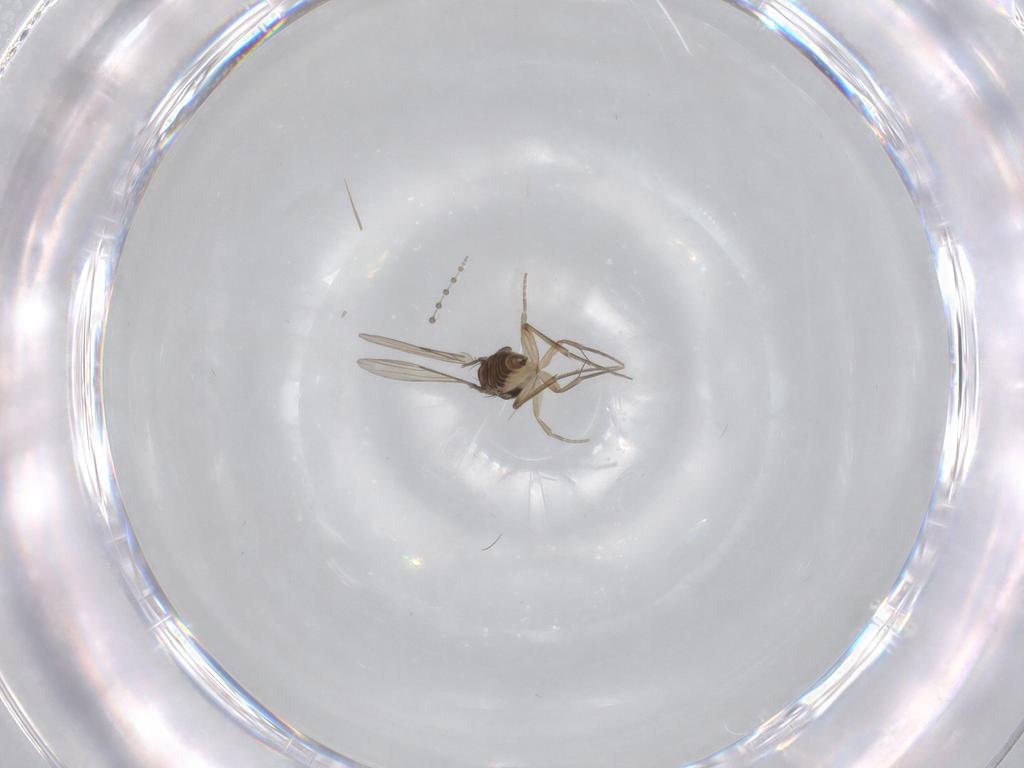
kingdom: Animalia
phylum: Arthropoda
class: Insecta
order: Diptera
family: Phoridae
